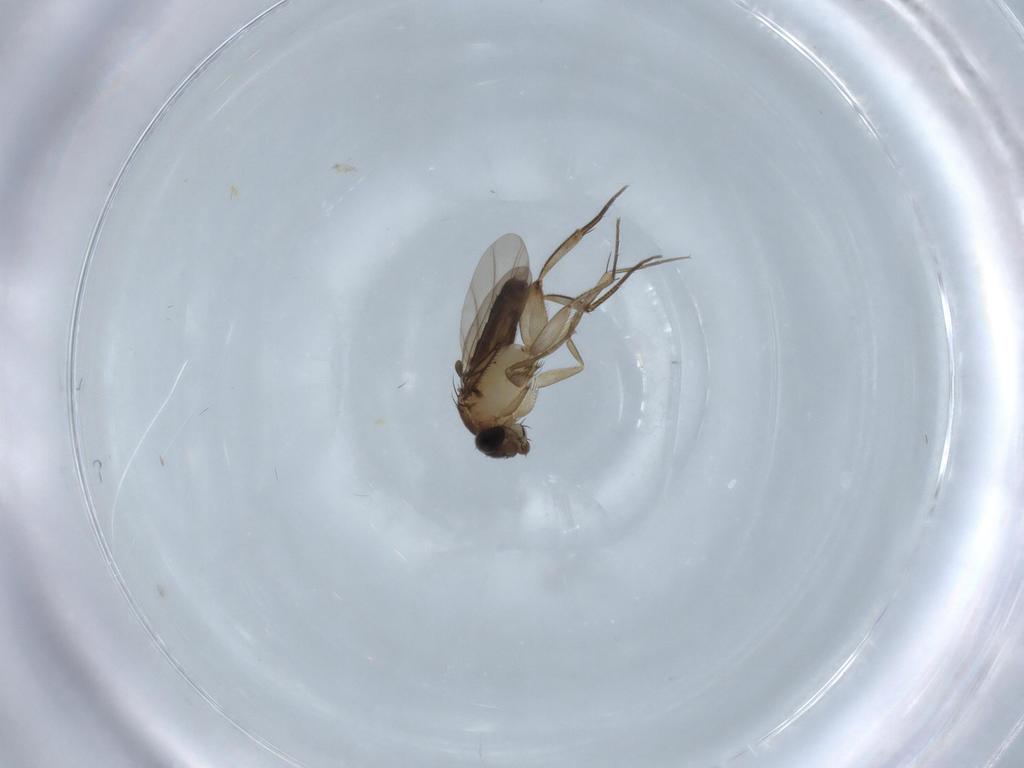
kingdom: Animalia
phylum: Arthropoda
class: Insecta
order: Diptera
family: Phoridae
